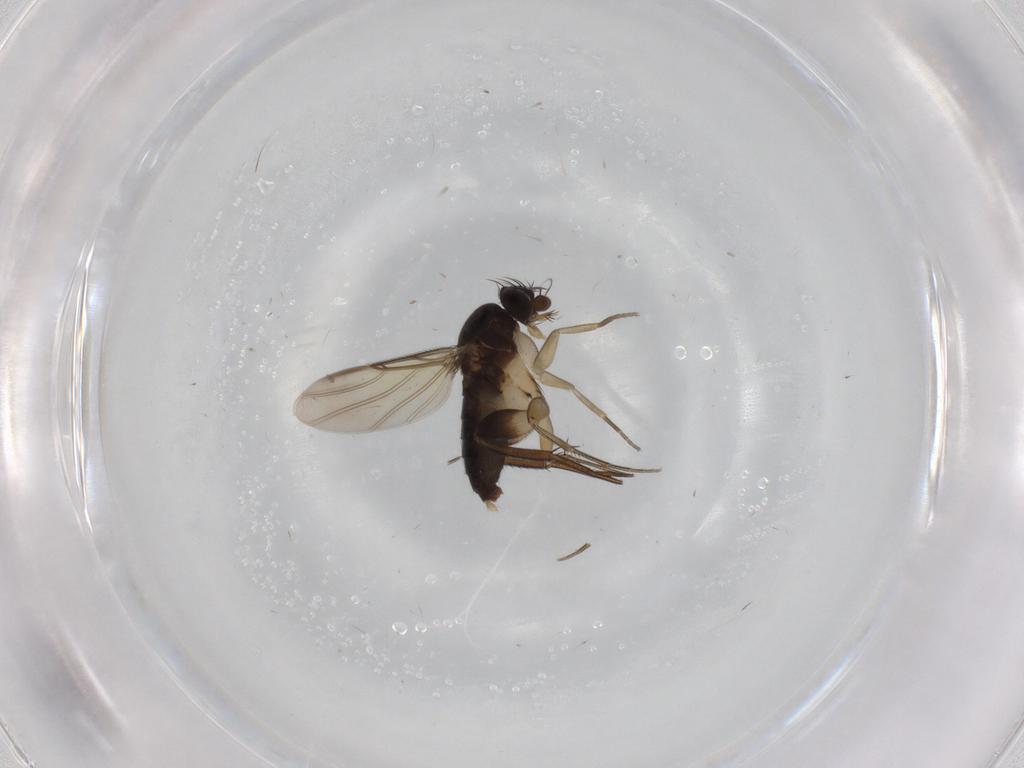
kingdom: Animalia
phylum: Arthropoda
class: Insecta
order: Diptera
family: Phoridae
